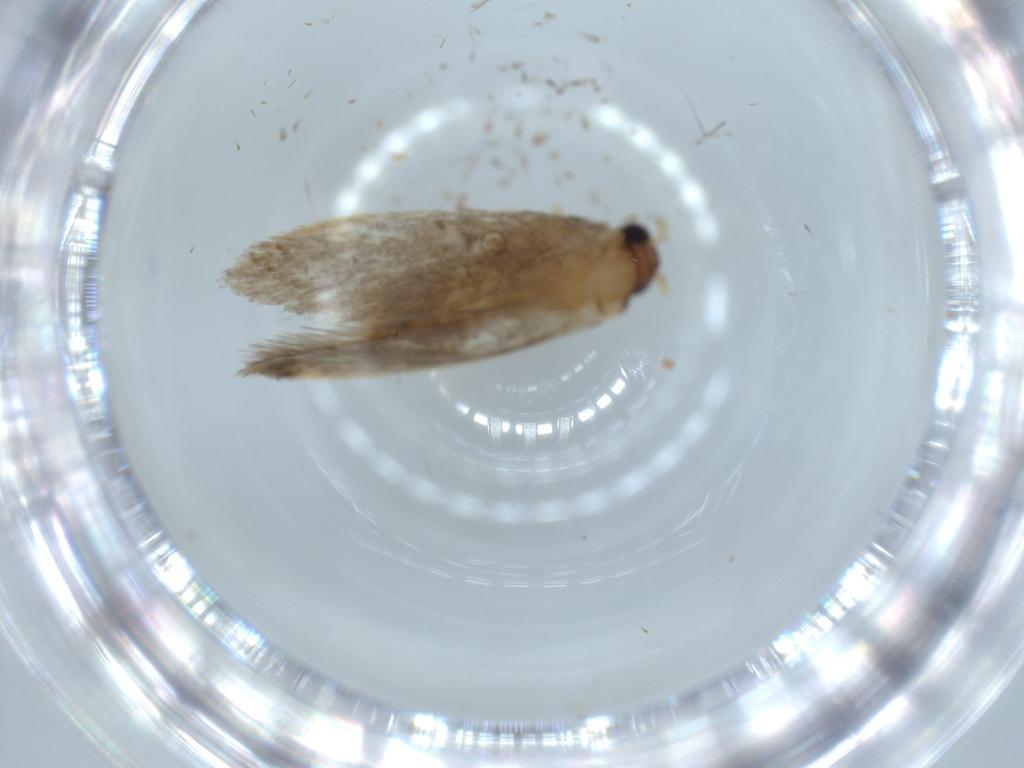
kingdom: Animalia
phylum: Arthropoda
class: Insecta
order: Lepidoptera
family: Tineidae
